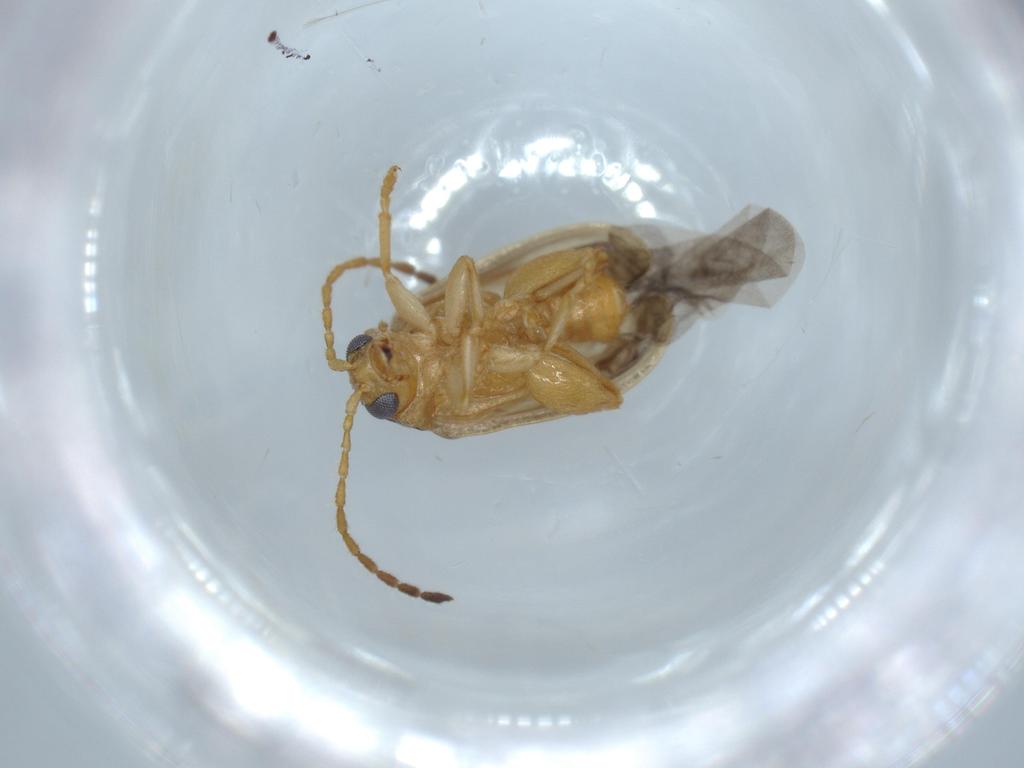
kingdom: Animalia
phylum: Arthropoda
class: Insecta
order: Coleoptera
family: Chrysomelidae
